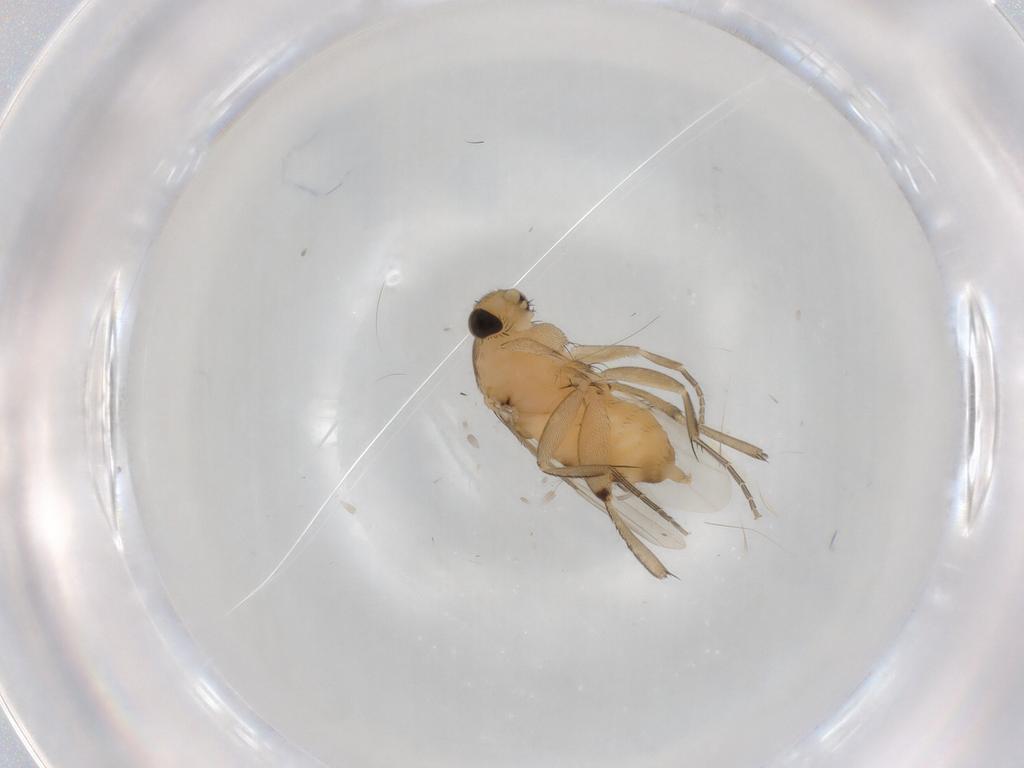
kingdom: Animalia
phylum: Arthropoda
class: Insecta
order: Diptera
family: Phoridae
